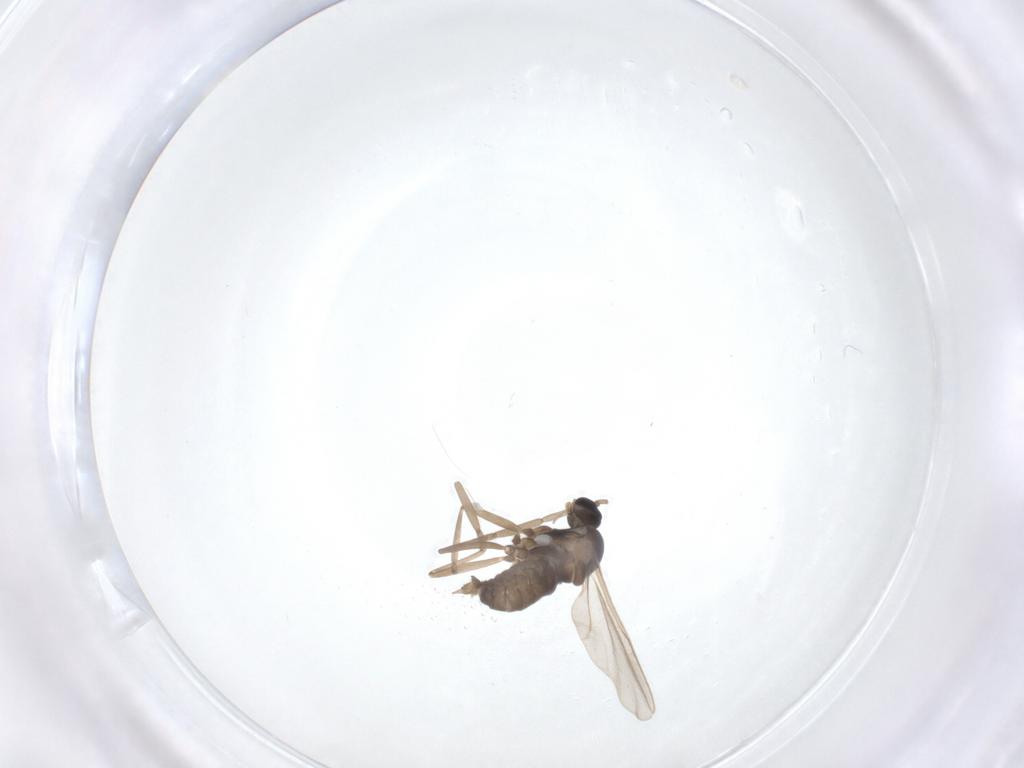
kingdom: Animalia
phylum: Arthropoda
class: Insecta
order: Diptera
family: Cecidomyiidae
